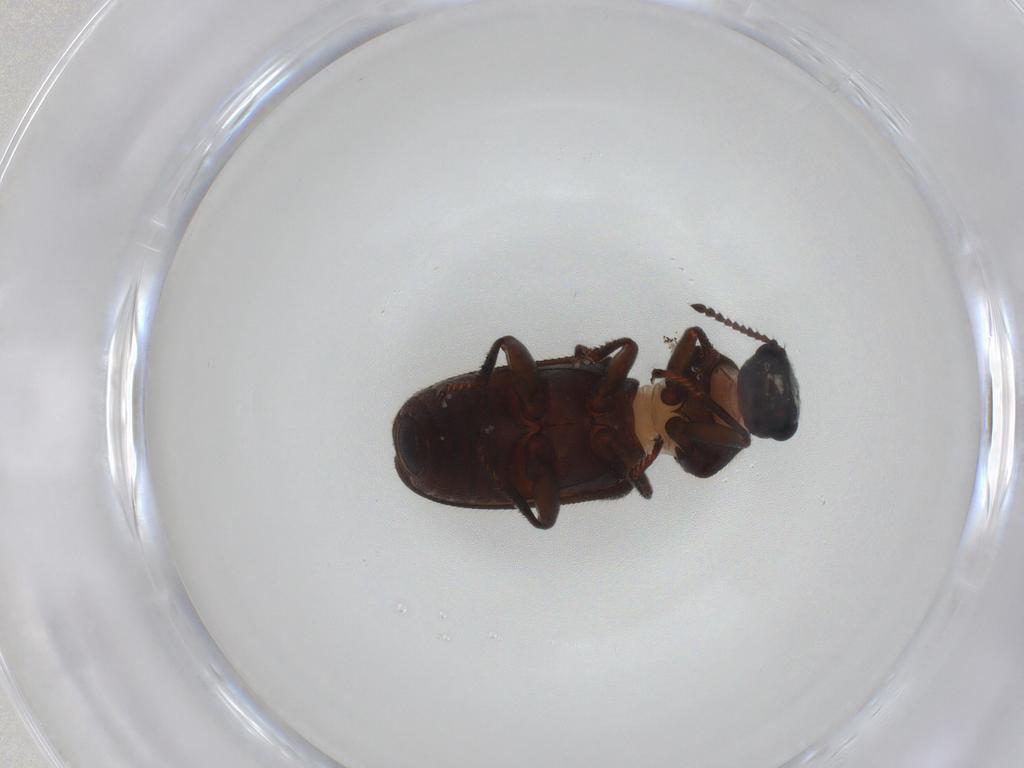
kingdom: Animalia
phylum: Arthropoda
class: Insecta
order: Coleoptera
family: Dasytidae
